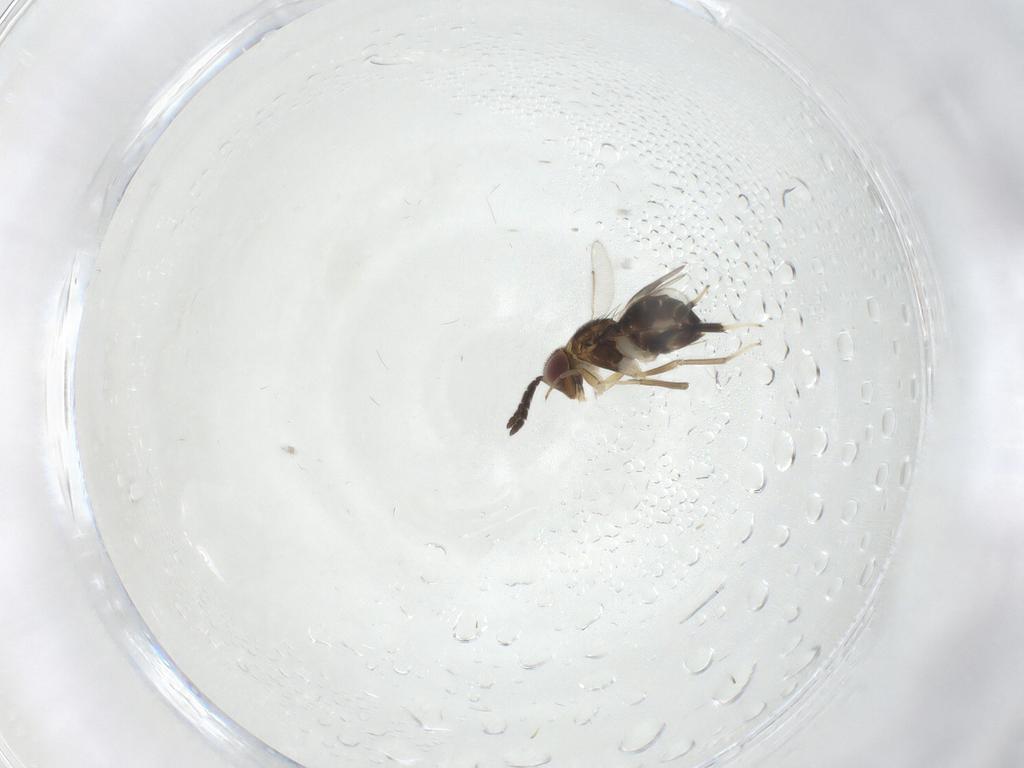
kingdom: Animalia
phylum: Arthropoda
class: Insecta
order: Hymenoptera
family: Aphelinidae
